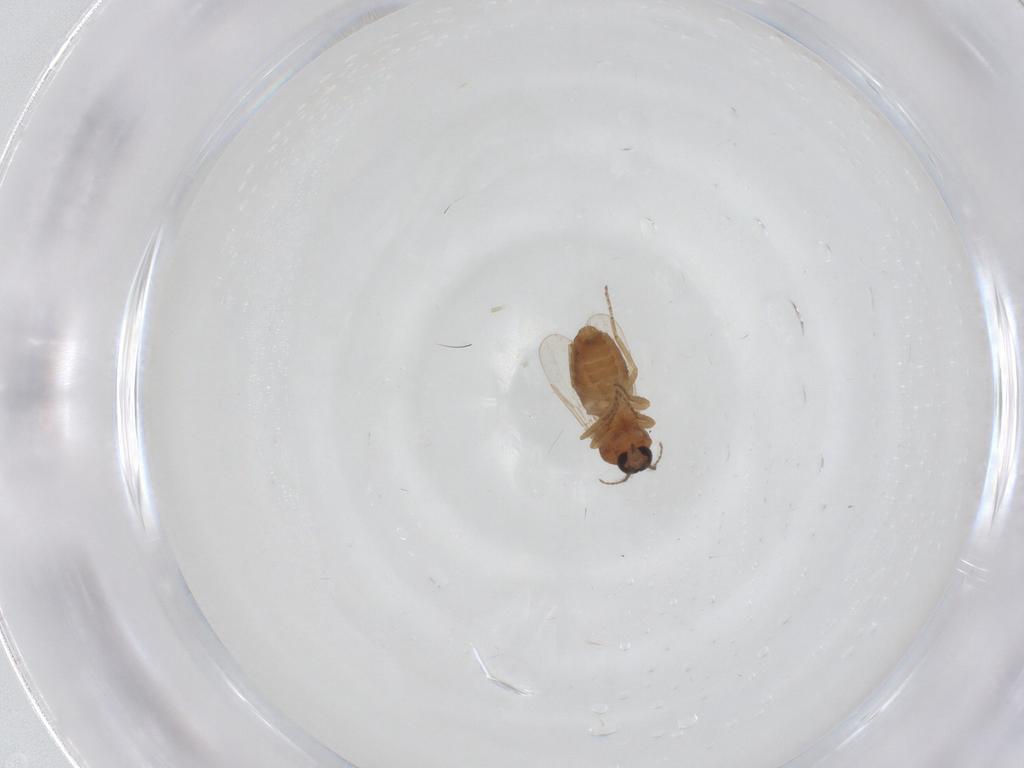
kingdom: Animalia
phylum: Arthropoda
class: Insecta
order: Diptera
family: Ceratopogonidae
